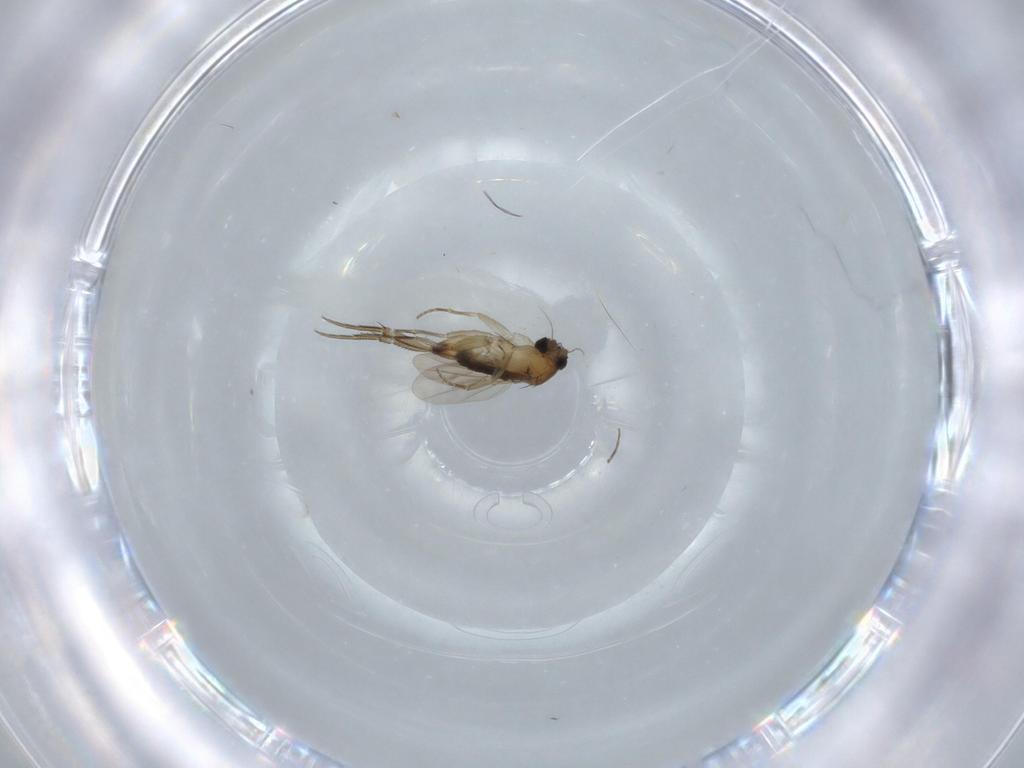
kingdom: Animalia
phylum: Arthropoda
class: Insecta
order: Diptera
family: Phoridae
